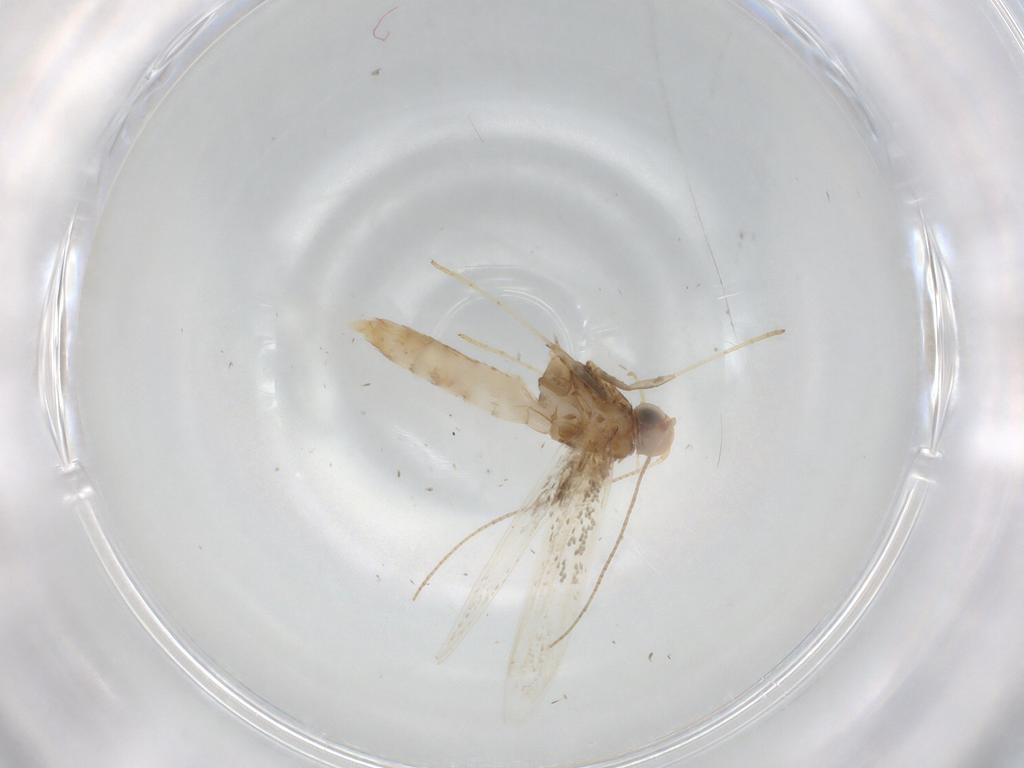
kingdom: Animalia
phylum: Arthropoda
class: Insecta
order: Lepidoptera
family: Gracillariidae
